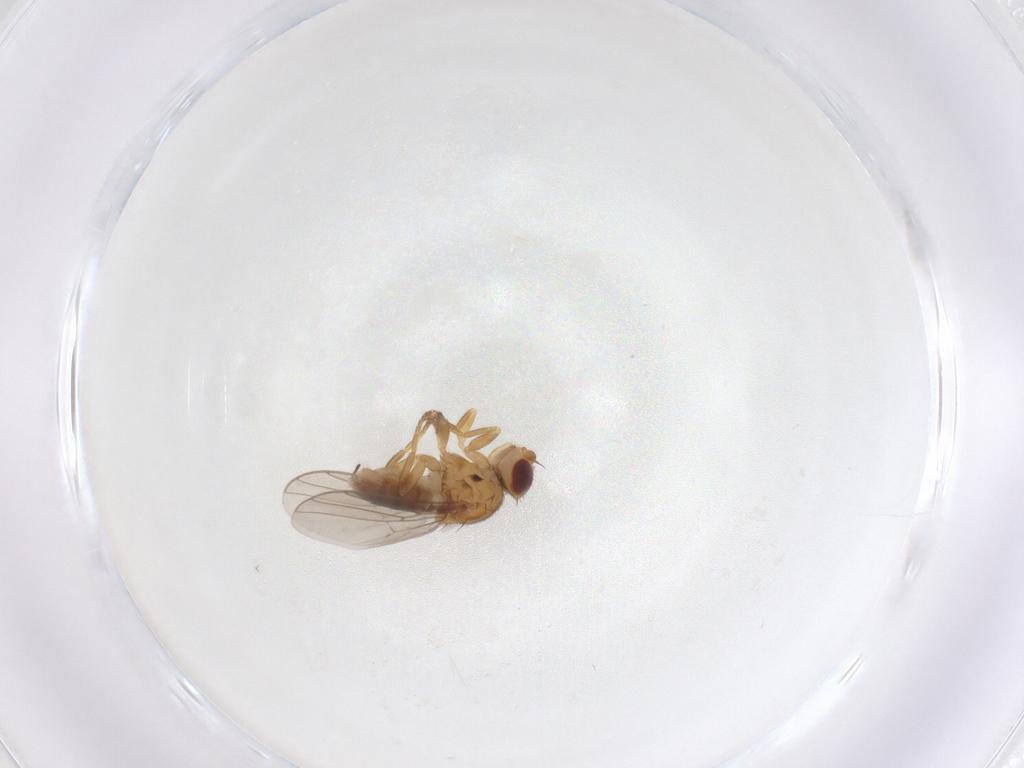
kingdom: Animalia
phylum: Arthropoda
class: Insecta
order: Diptera
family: Chloropidae
